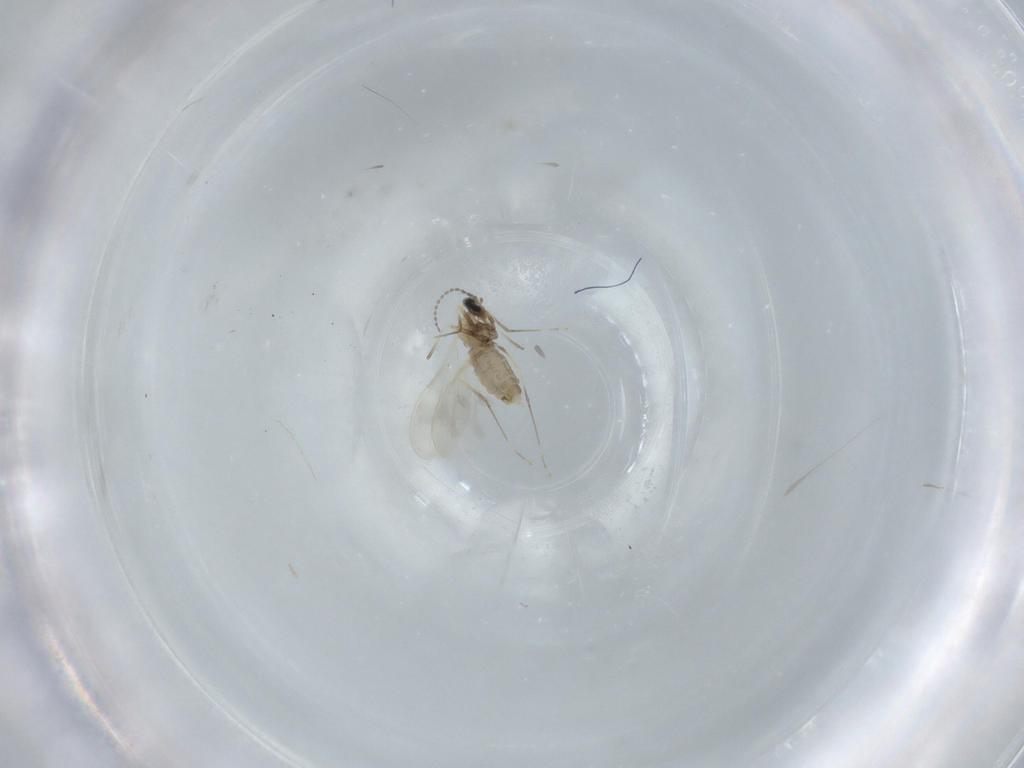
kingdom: Animalia
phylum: Arthropoda
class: Insecta
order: Diptera
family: Cecidomyiidae
